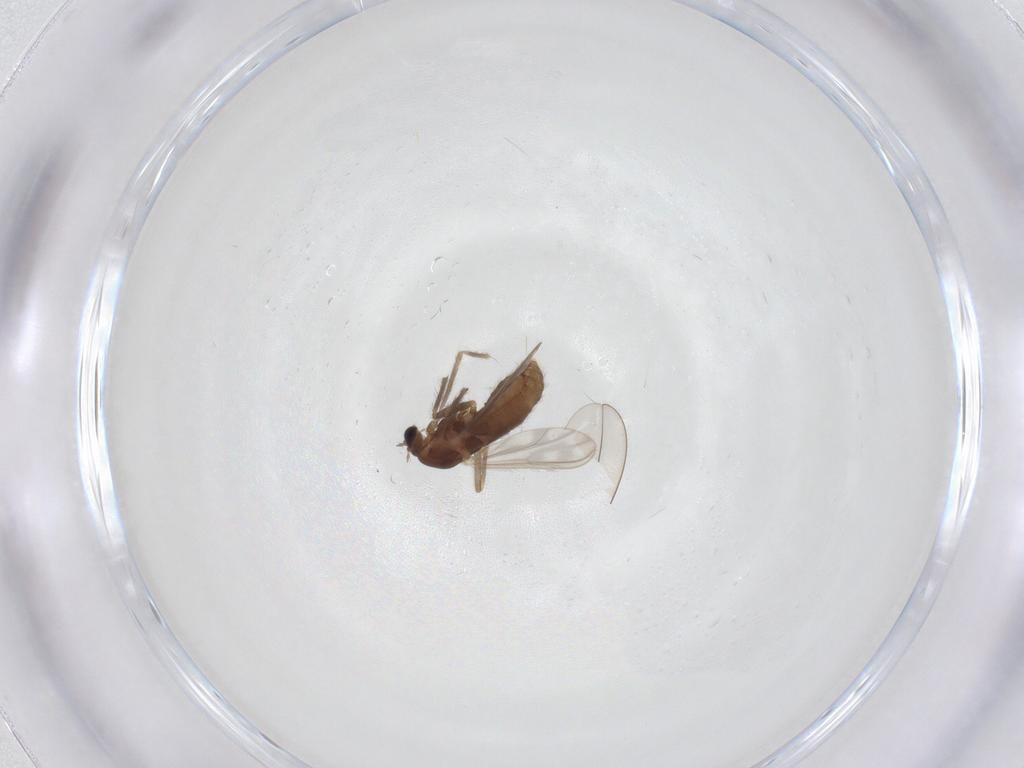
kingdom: Animalia
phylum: Arthropoda
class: Insecta
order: Diptera
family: Chironomidae
